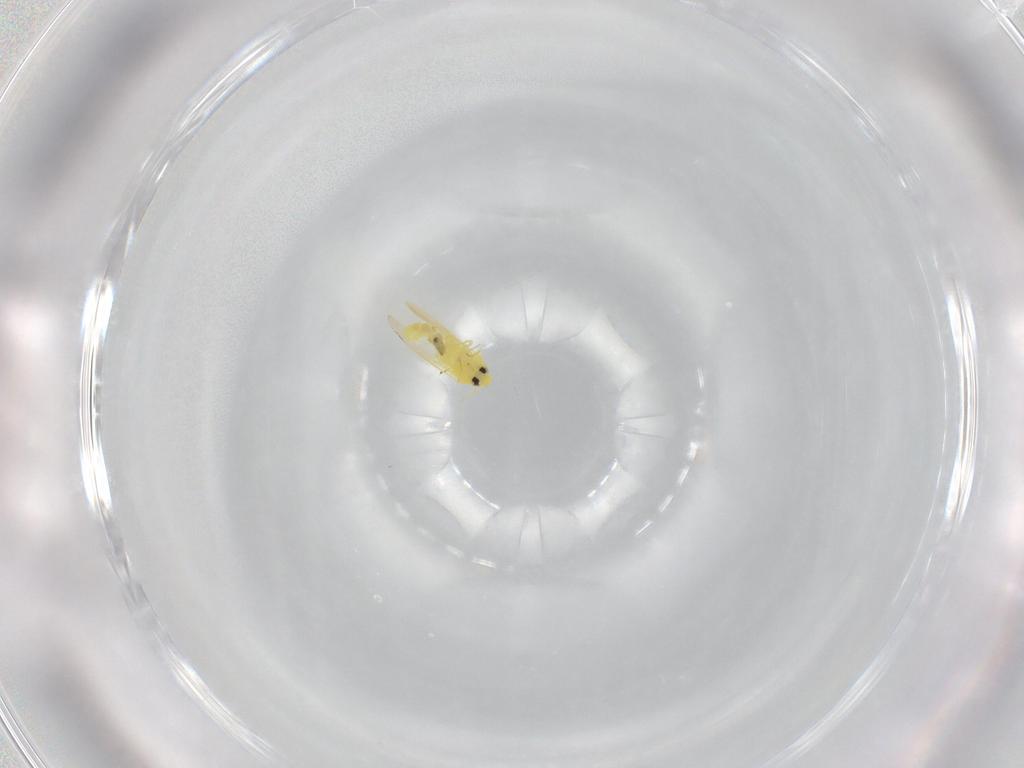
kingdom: Animalia
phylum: Arthropoda
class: Insecta
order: Hemiptera
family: Aleyrodidae
